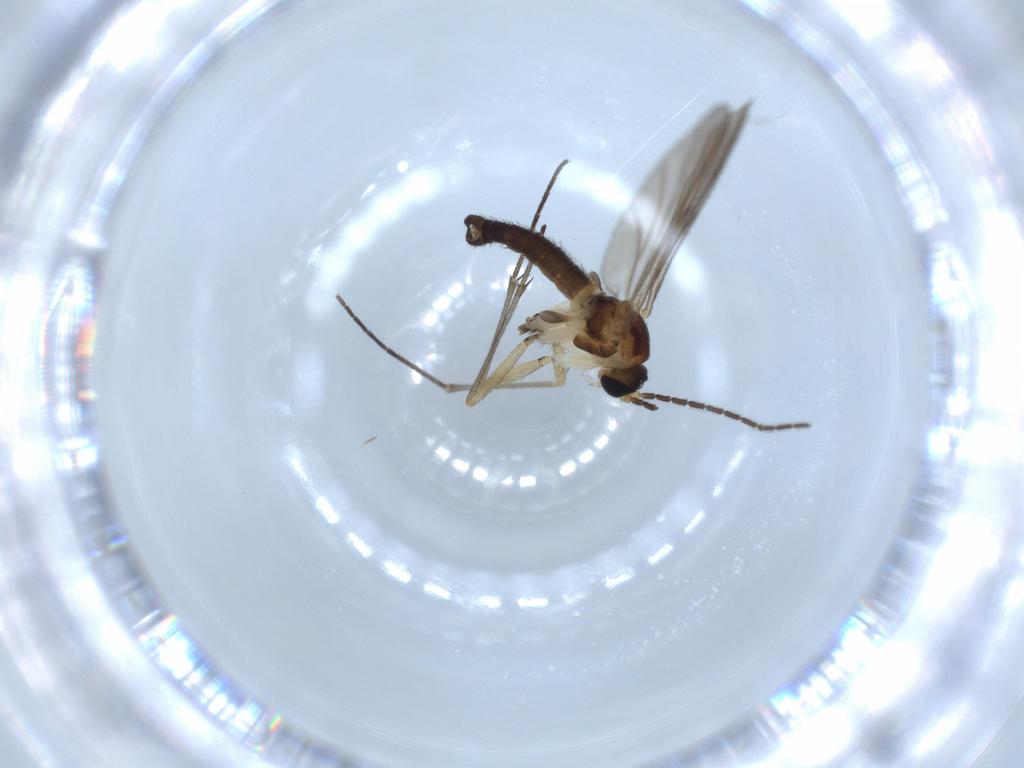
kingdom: Animalia
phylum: Arthropoda
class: Insecta
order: Diptera
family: Sciaridae
